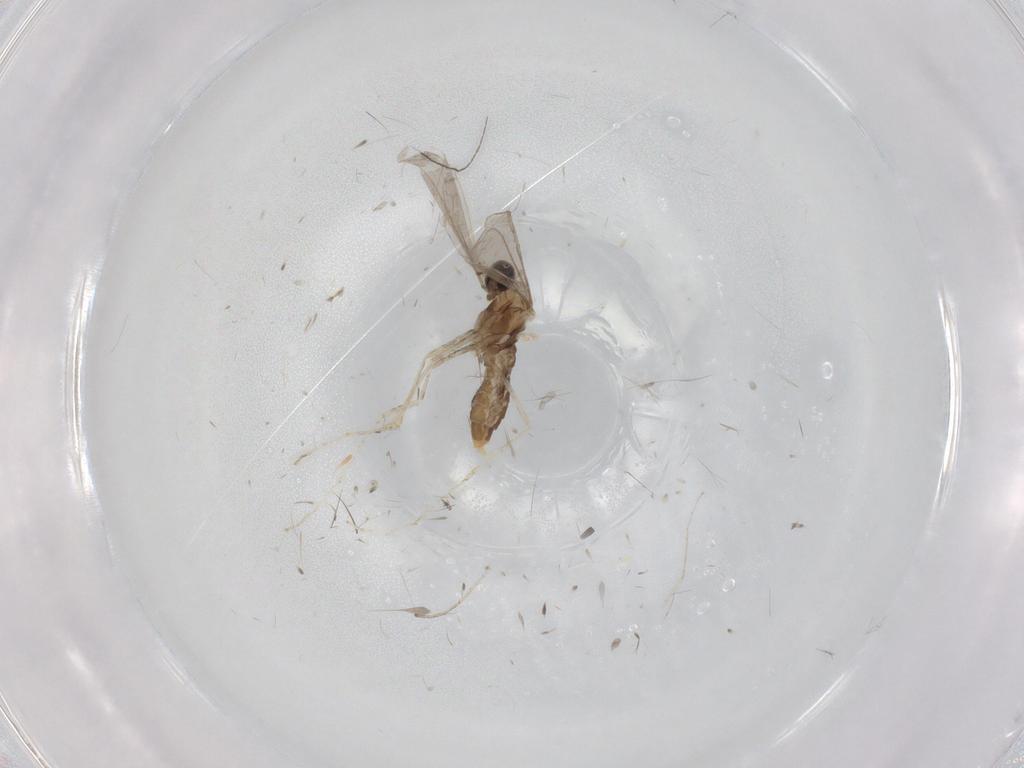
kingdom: Animalia
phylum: Arthropoda
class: Insecta
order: Diptera
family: Cecidomyiidae
